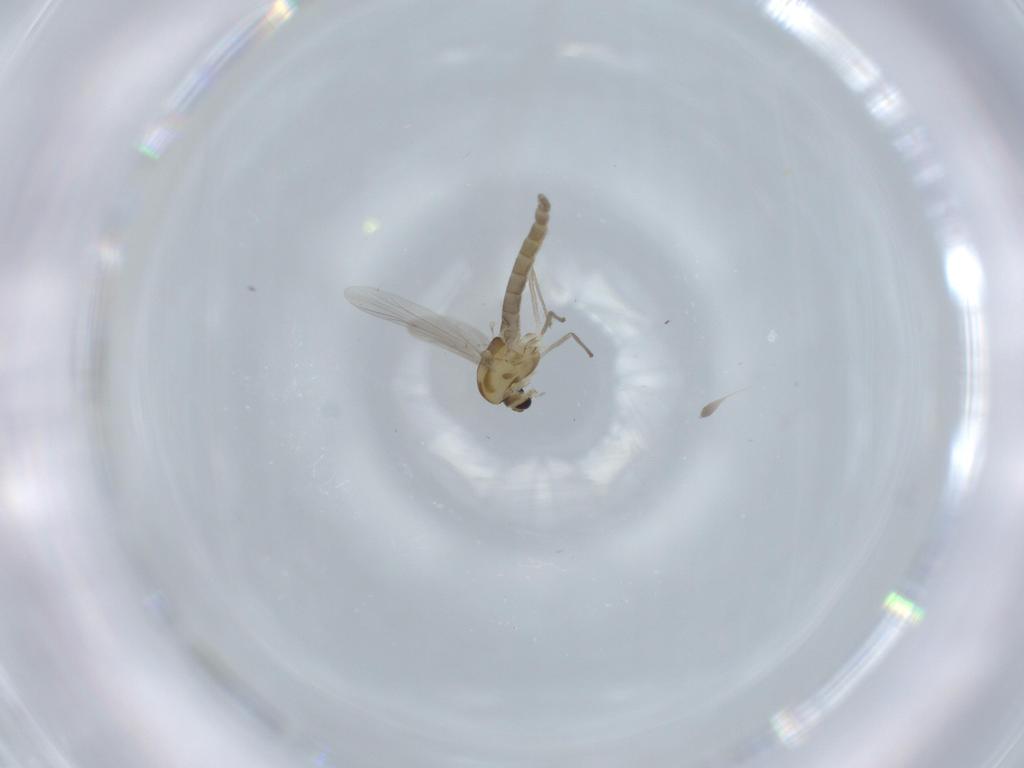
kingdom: Animalia
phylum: Arthropoda
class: Insecta
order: Diptera
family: Chironomidae
